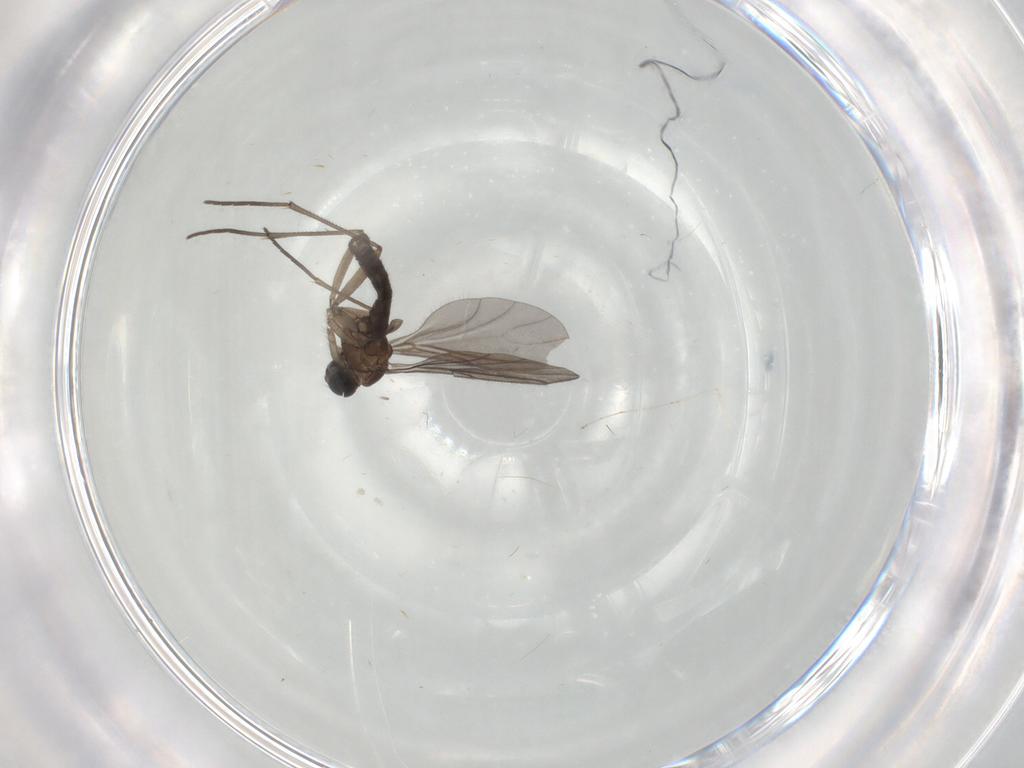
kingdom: Animalia
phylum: Arthropoda
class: Insecta
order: Diptera
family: Sciaridae
